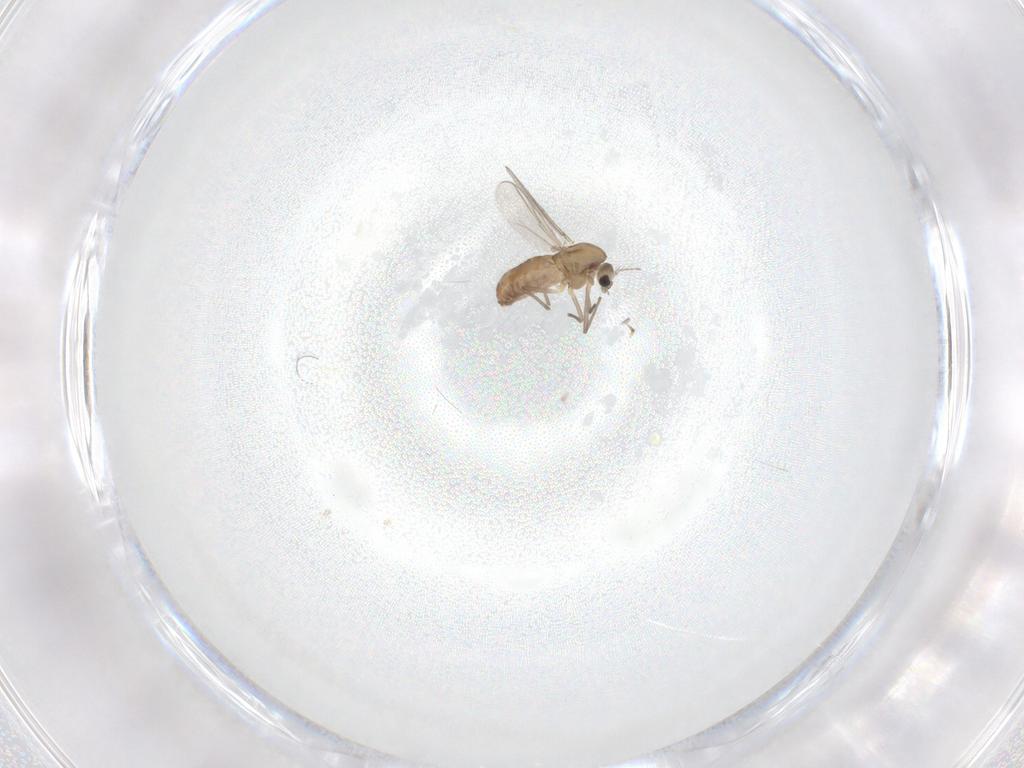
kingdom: Animalia
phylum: Arthropoda
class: Insecta
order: Diptera
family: Chironomidae
